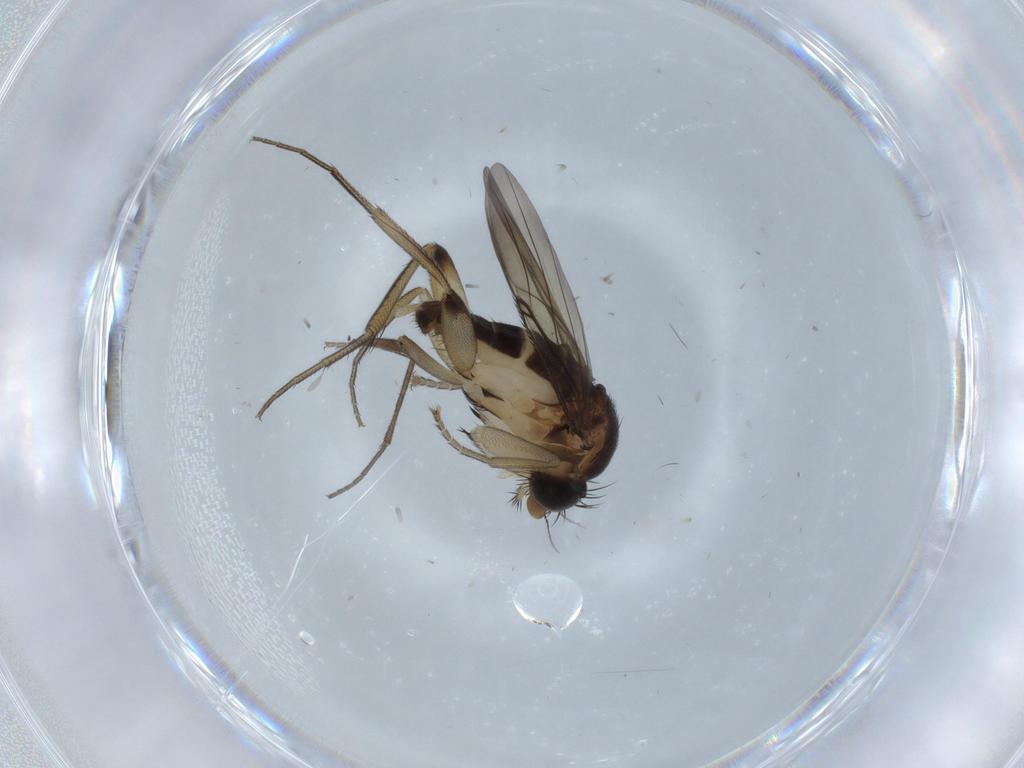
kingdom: Animalia
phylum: Arthropoda
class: Insecta
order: Diptera
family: Phoridae
